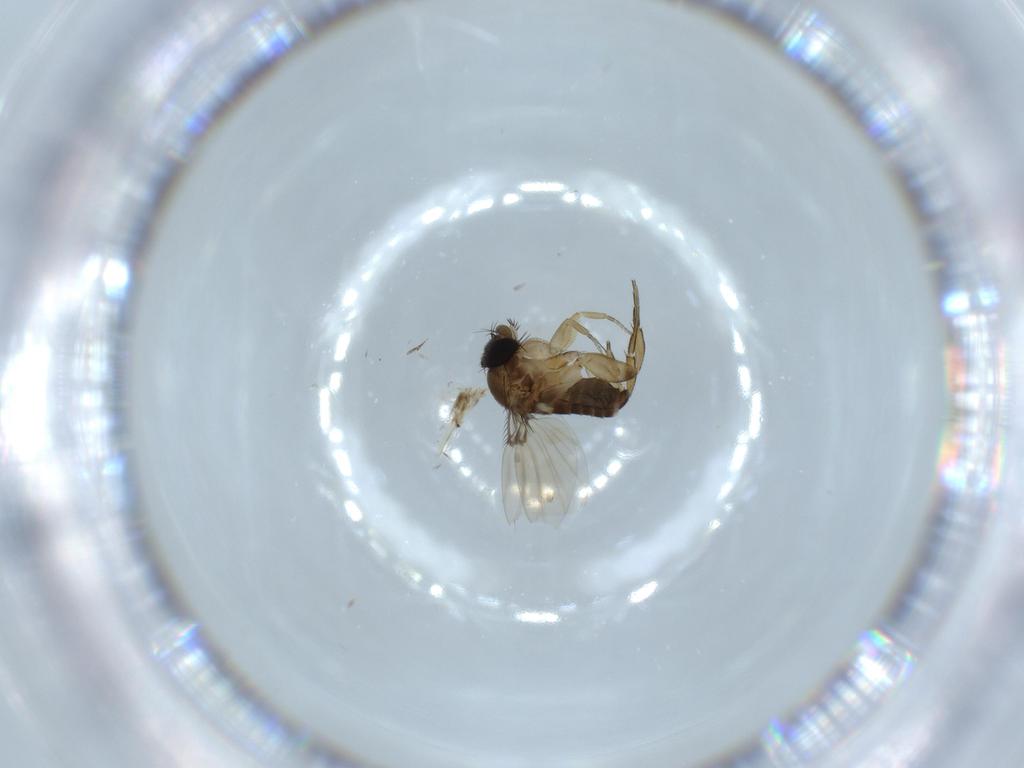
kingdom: Animalia
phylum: Arthropoda
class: Insecta
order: Diptera
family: Phoridae
